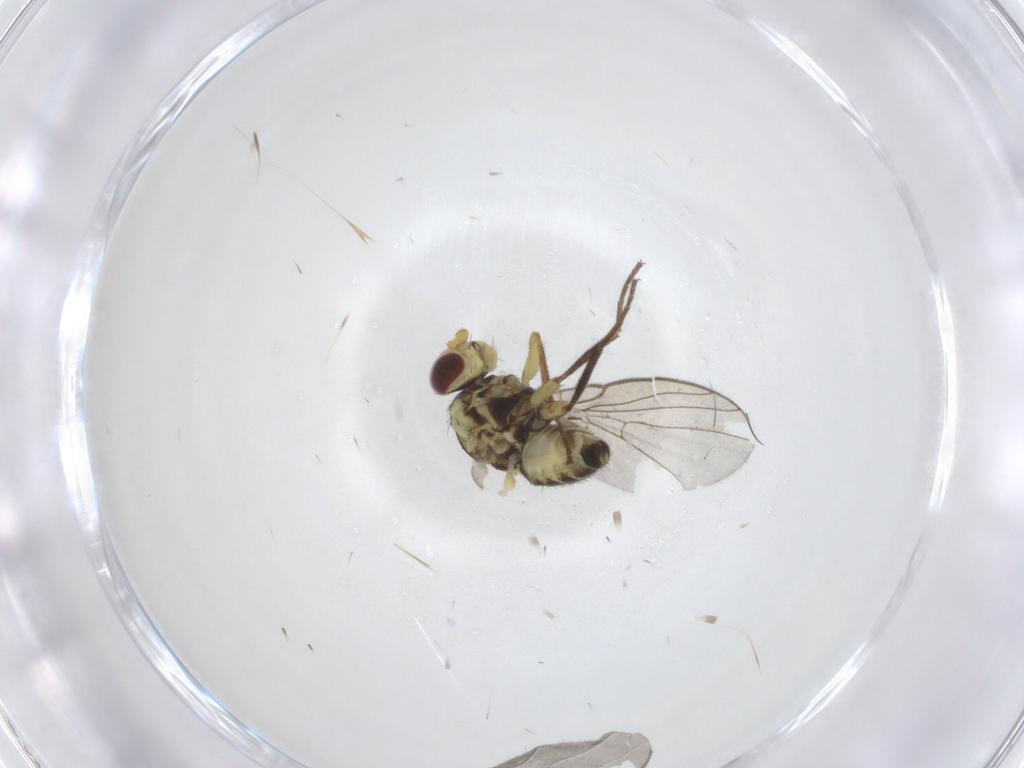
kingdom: Animalia
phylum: Arthropoda
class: Insecta
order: Diptera
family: Agromyzidae
